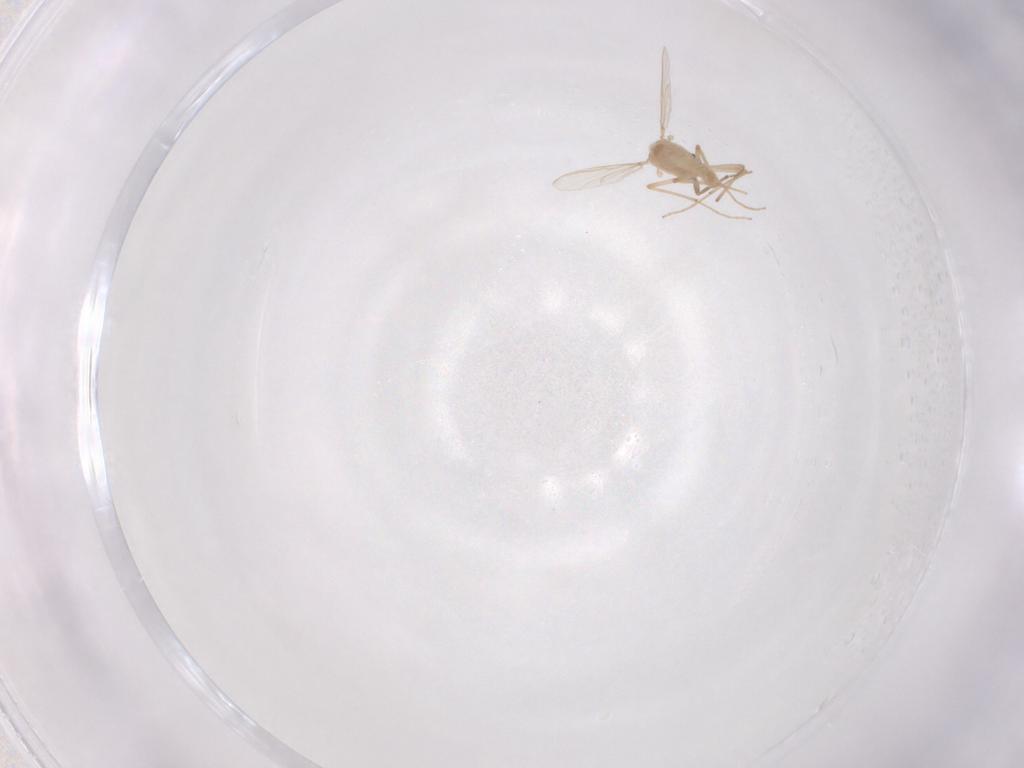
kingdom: Animalia
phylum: Arthropoda
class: Insecta
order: Diptera
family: Chironomidae
